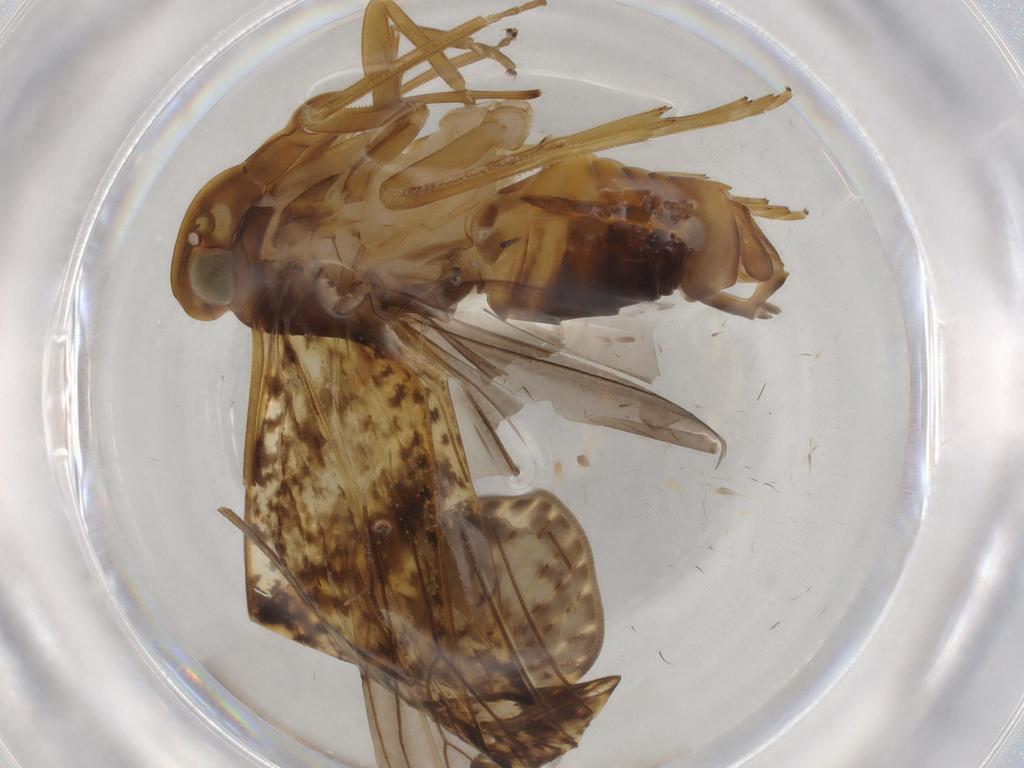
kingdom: Animalia
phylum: Arthropoda
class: Insecta
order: Hemiptera
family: Cixiidae
